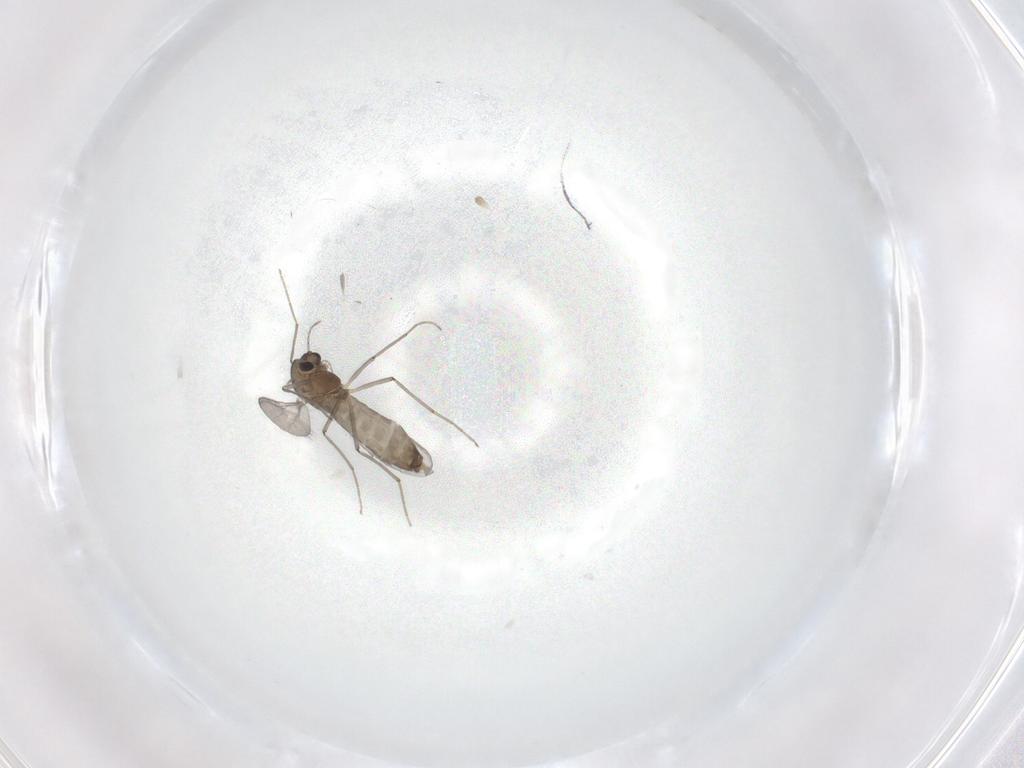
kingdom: Animalia
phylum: Arthropoda
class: Insecta
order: Diptera
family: Chironomidae
